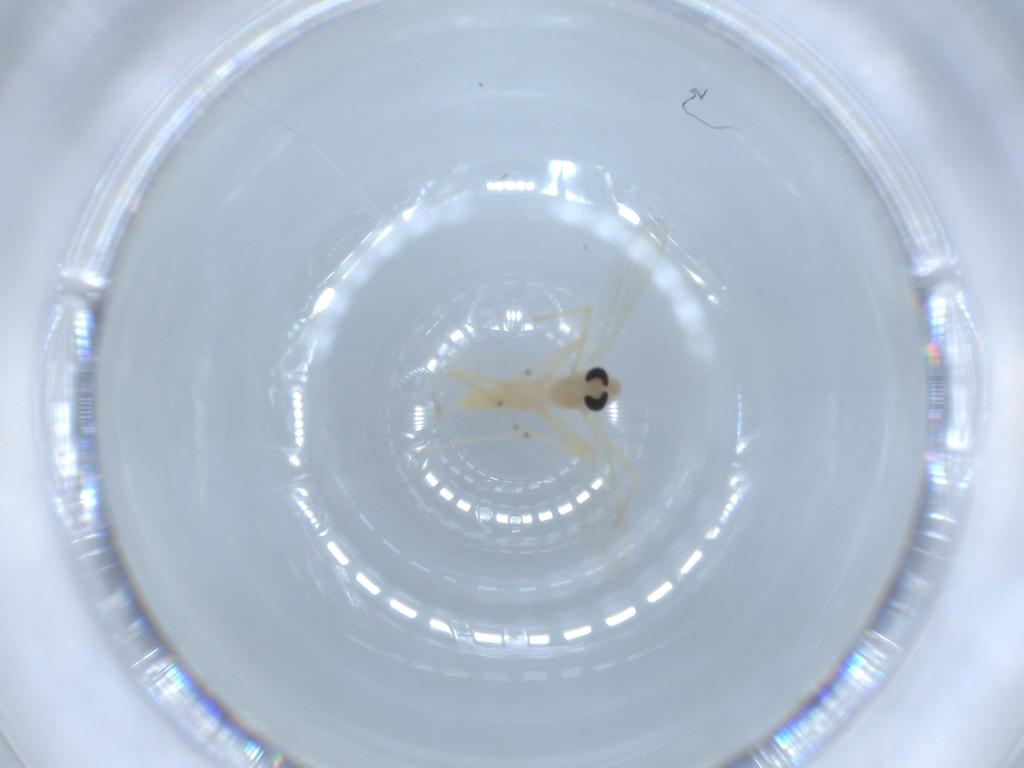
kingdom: Animalia
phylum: Arthropoda
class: Insecta
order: Diptera
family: Chironomidae
